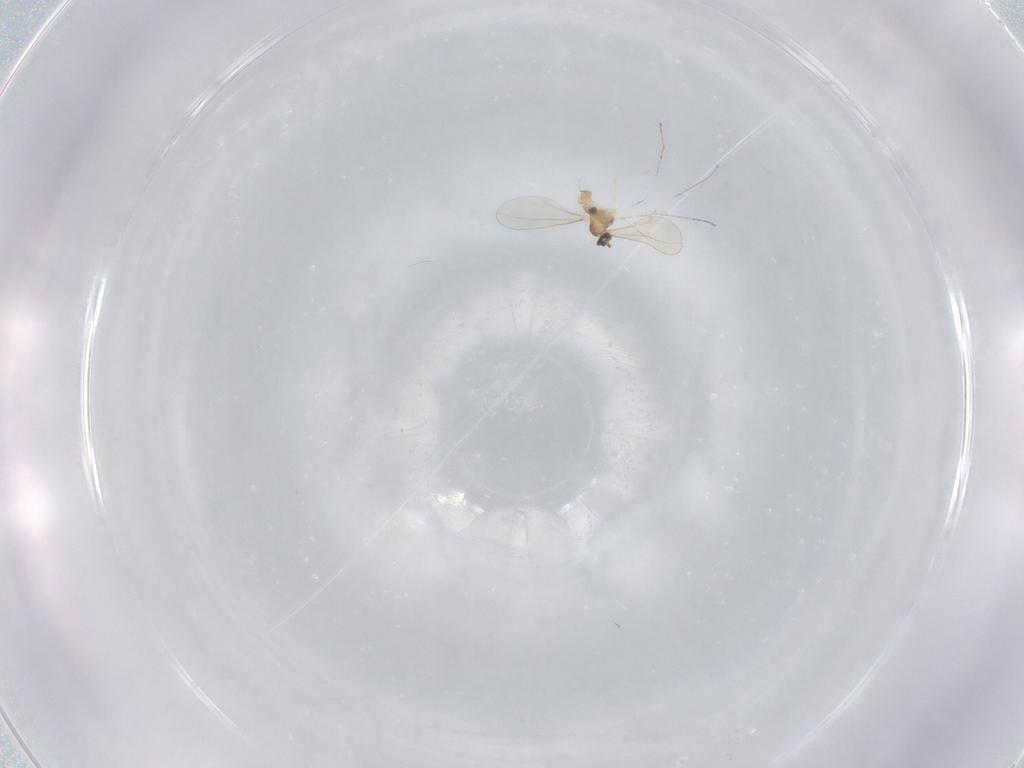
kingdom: Animalia
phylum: Arthropoda
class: Insecta
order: Diptera
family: Cecidomyiidae
